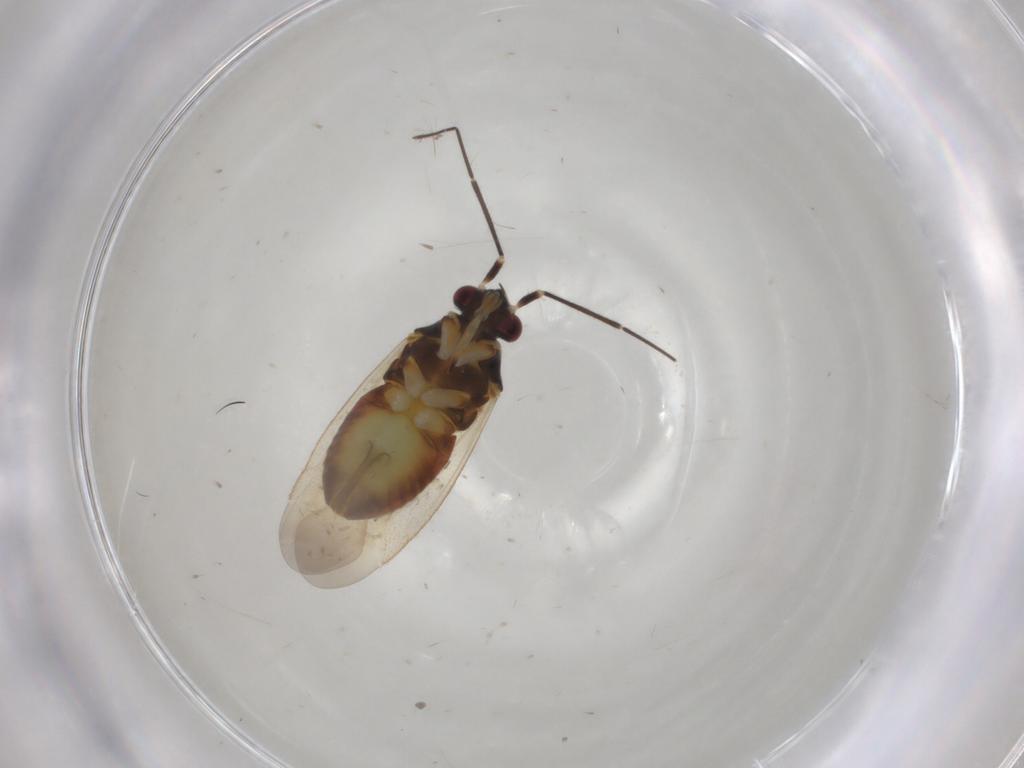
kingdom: Animalia
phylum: Arthropoda
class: Insecta
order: Hemiptera
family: Miridae
